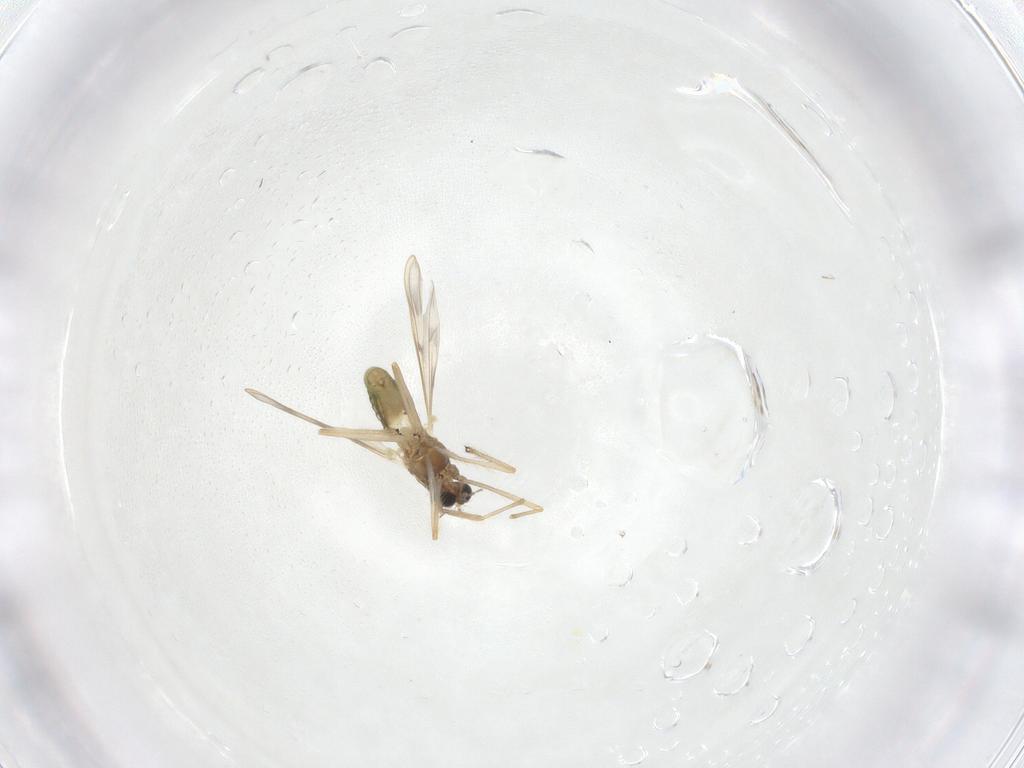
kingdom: Animalia
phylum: Arthropoda
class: Insecta
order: Diptera
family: Chironomidae
